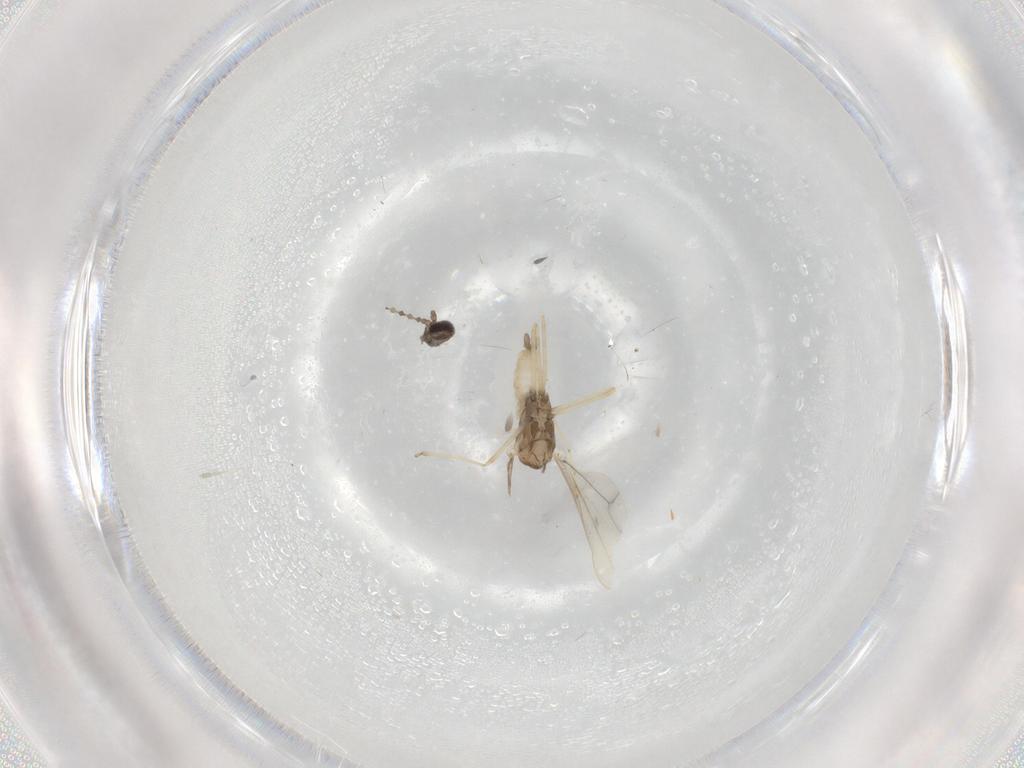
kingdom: Animalia
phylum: Arthropoda
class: Insecta
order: Diptera
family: Cecidomyiidae
